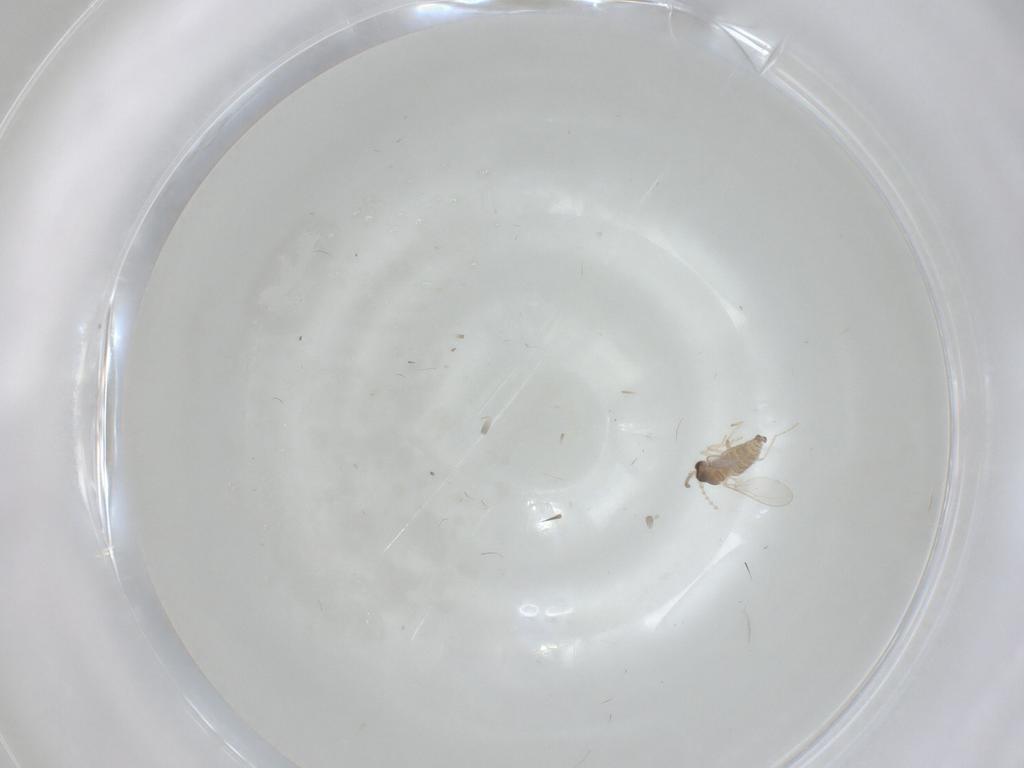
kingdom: Animalia
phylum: Arthropoda
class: Insecta
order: Diptera
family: Cecidomyiidae
